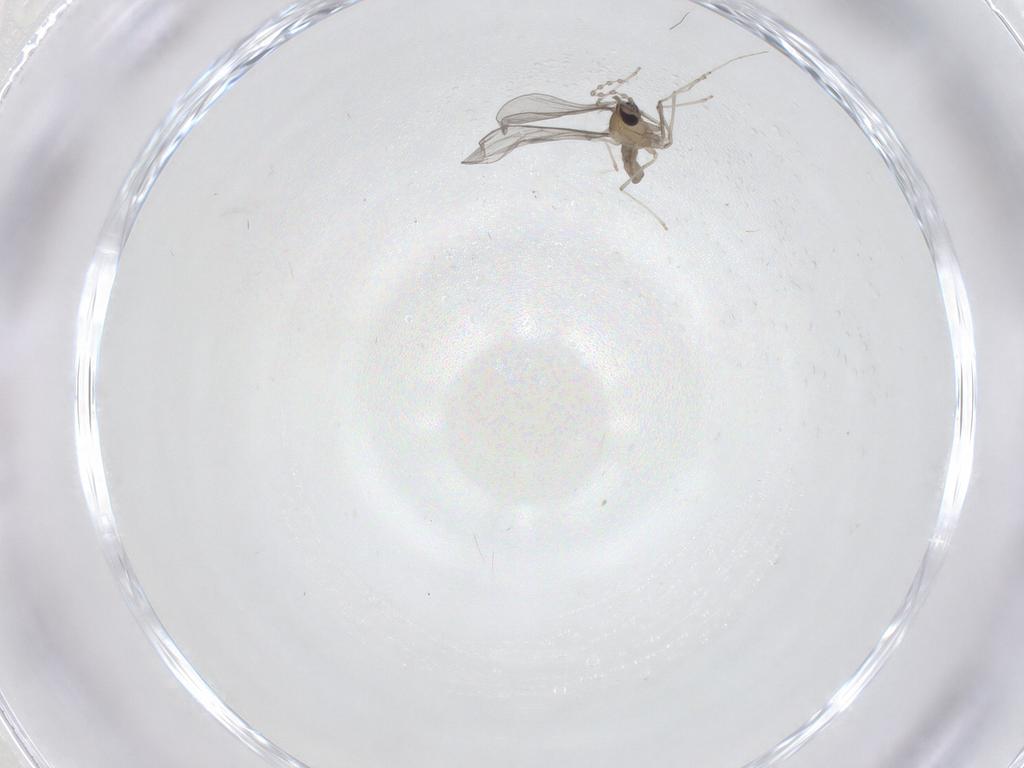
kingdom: Animalia
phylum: Arthropoda
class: Insecta
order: Diptera
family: Cecidomyiidae
